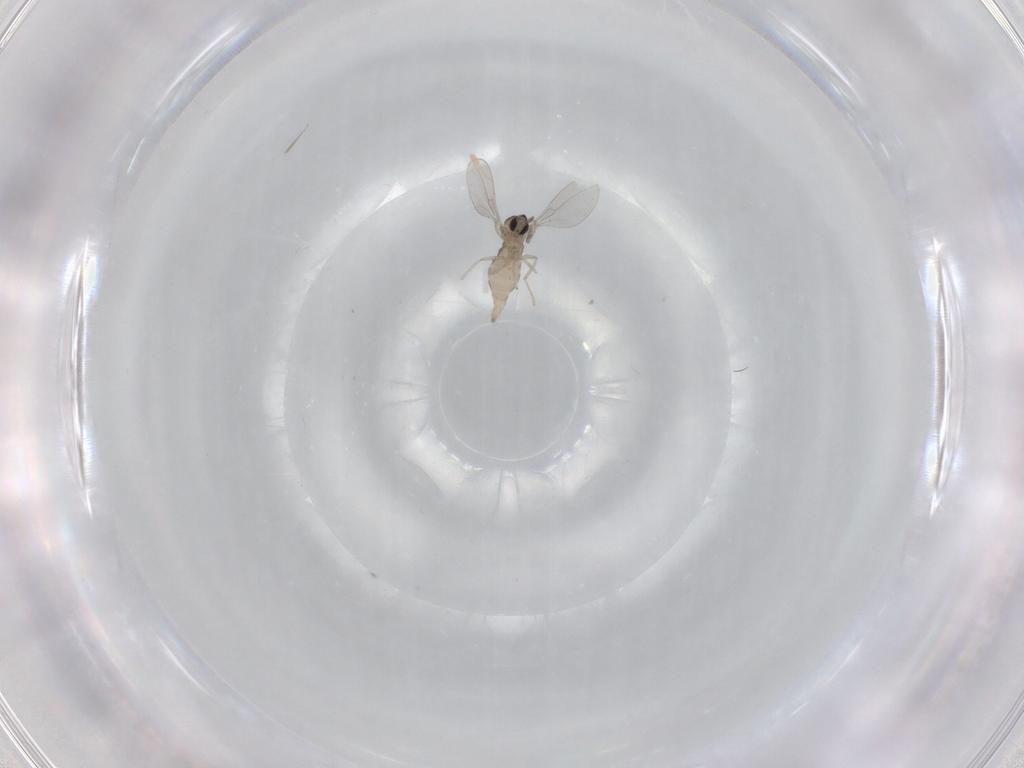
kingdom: Animalia
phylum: Arthropoda
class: Insecta
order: Diptera
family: Cecidomyiidae
